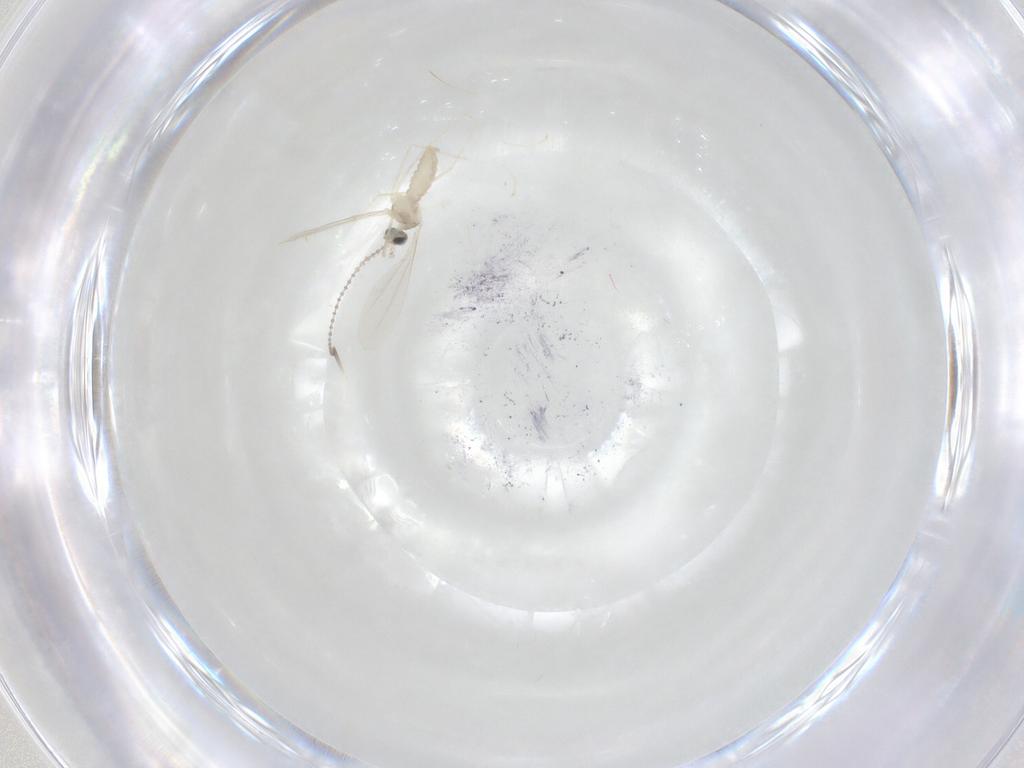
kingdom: Animalia
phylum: Arthropoda
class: Insecta
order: Diptera
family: Cecidomyiidae
